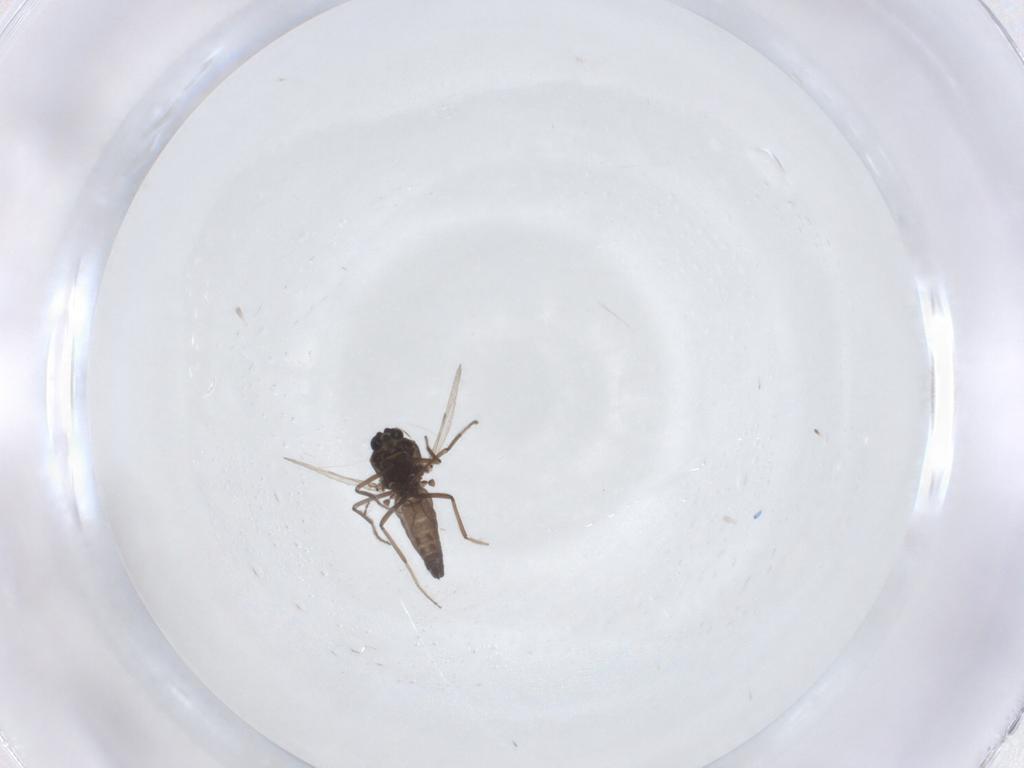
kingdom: Animalia
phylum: Arthropoda
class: Insecta
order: Diptera
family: Ceratopogonidae
